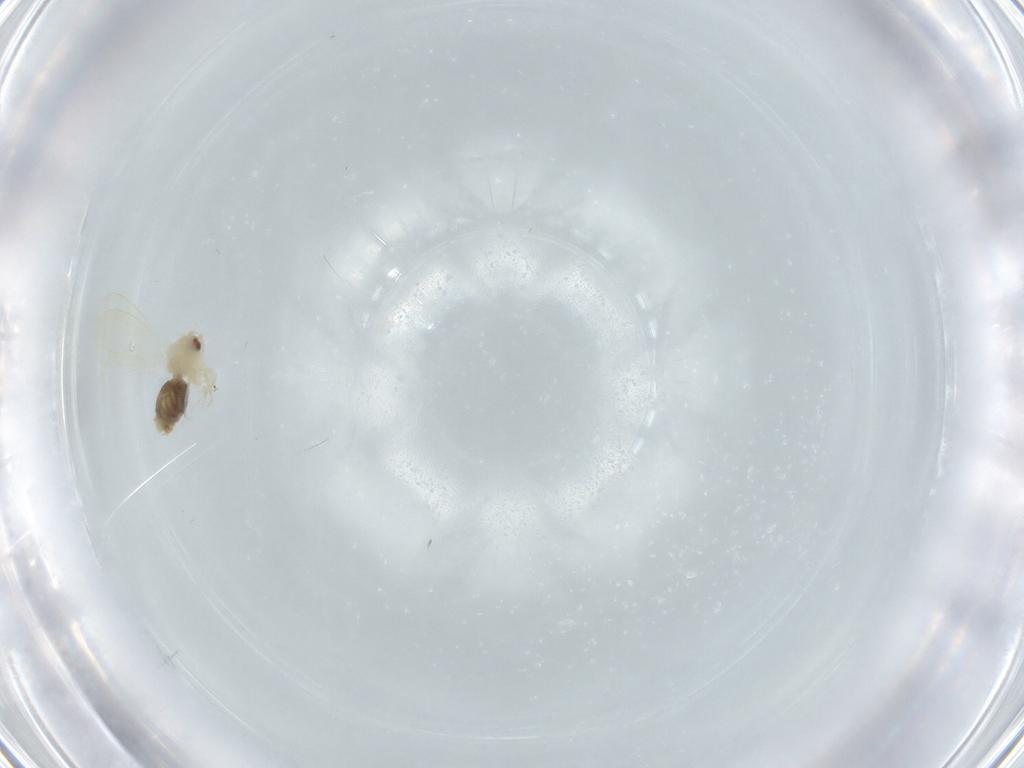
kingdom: Animalia
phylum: Arthropoda
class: Insecta
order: Hemiptera
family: Aleyrodidae
